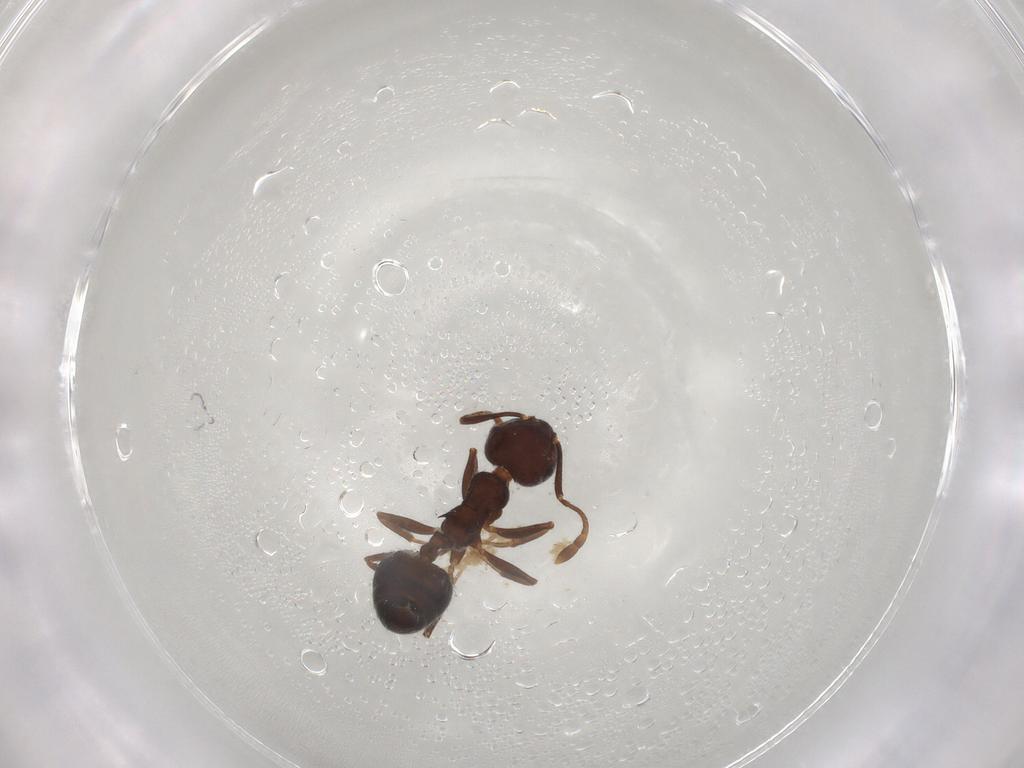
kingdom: Animalia
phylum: Arthropoda
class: Insecta
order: Hymenoptera
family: Formicidae
